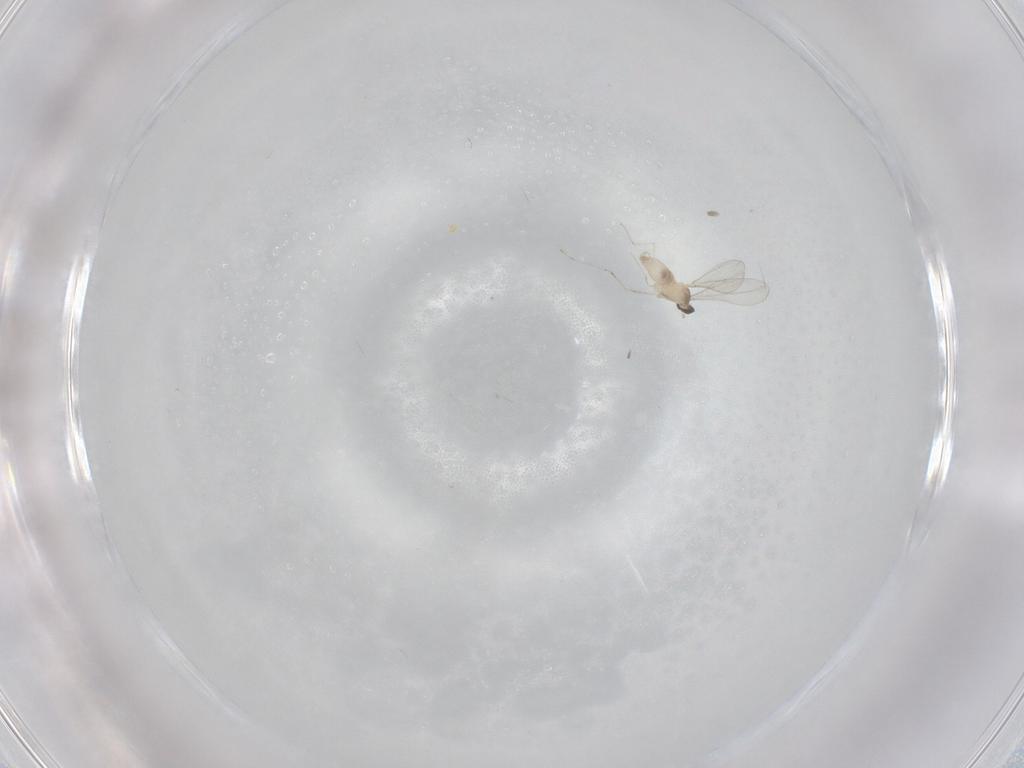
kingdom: Animalia
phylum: Arthropoda
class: Insecta
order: Diptera
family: Cecidomyiidae
